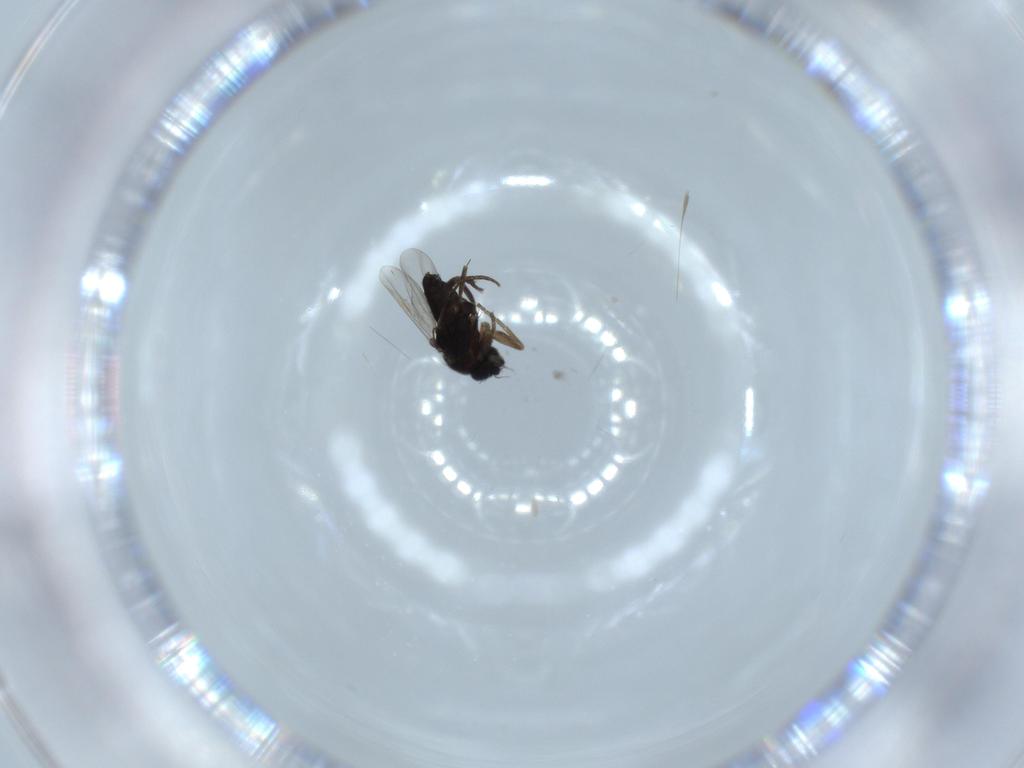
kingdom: Animalia
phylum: Arthropoda
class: Insecta
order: Diptera
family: Phoridae
